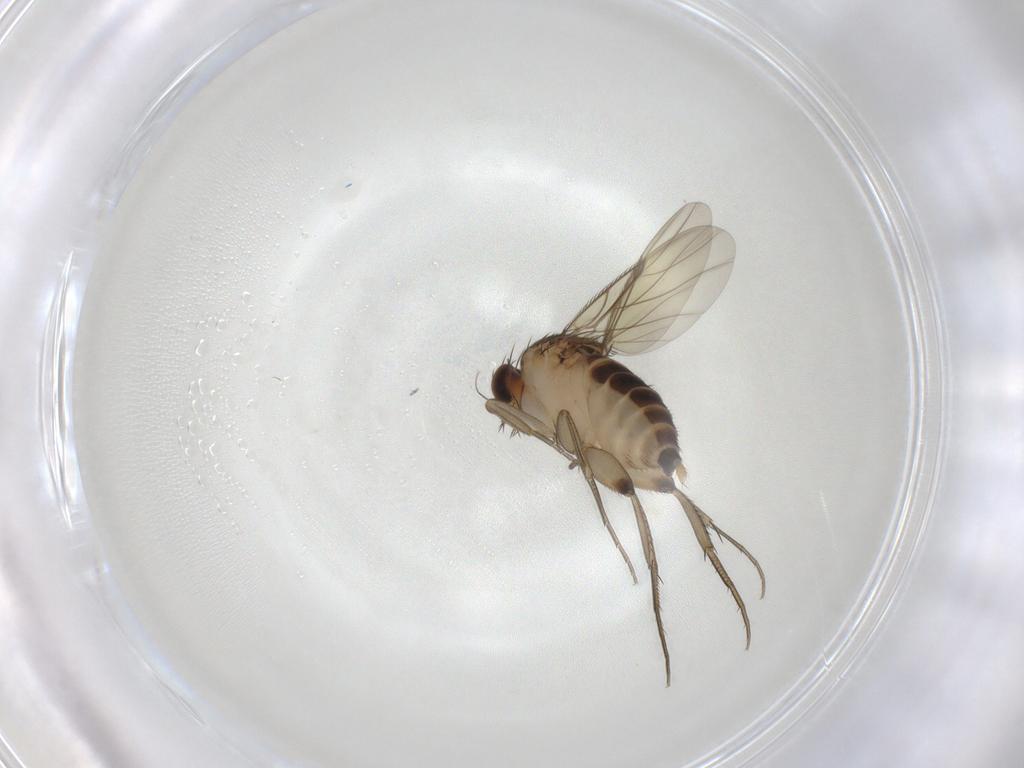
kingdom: Animalia
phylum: Arthropoda
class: Insecta
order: Diptera
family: Phoridae
